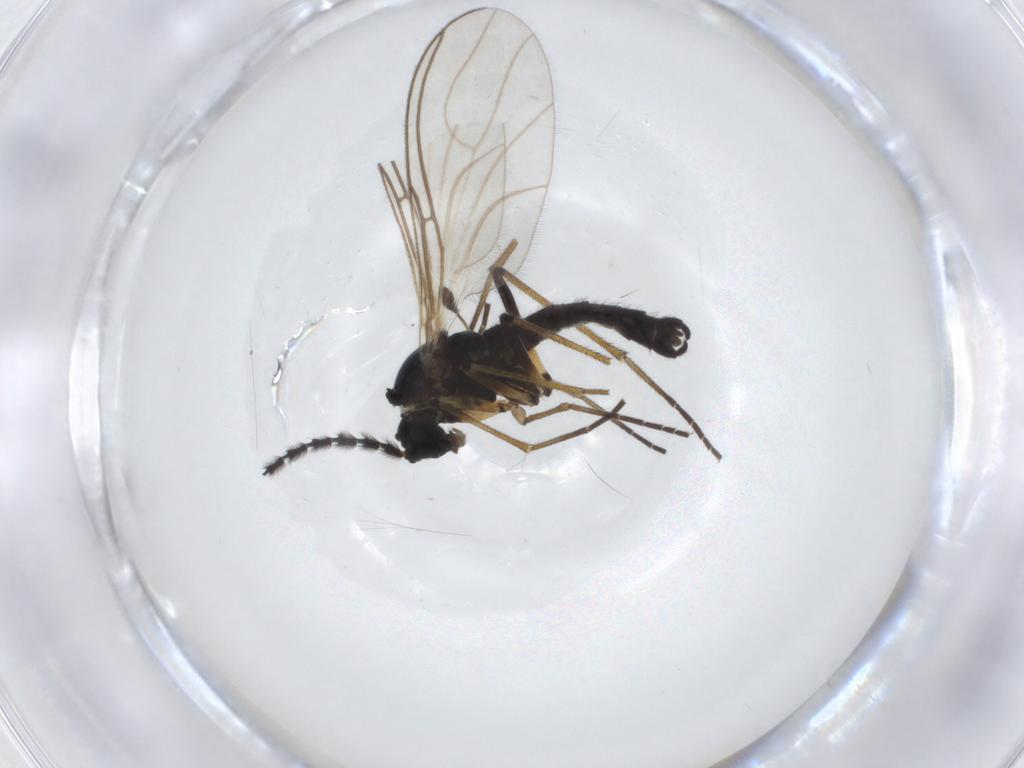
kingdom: Animalia
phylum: Arthropoda
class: Insecta
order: Diptera
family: Sciaridae
